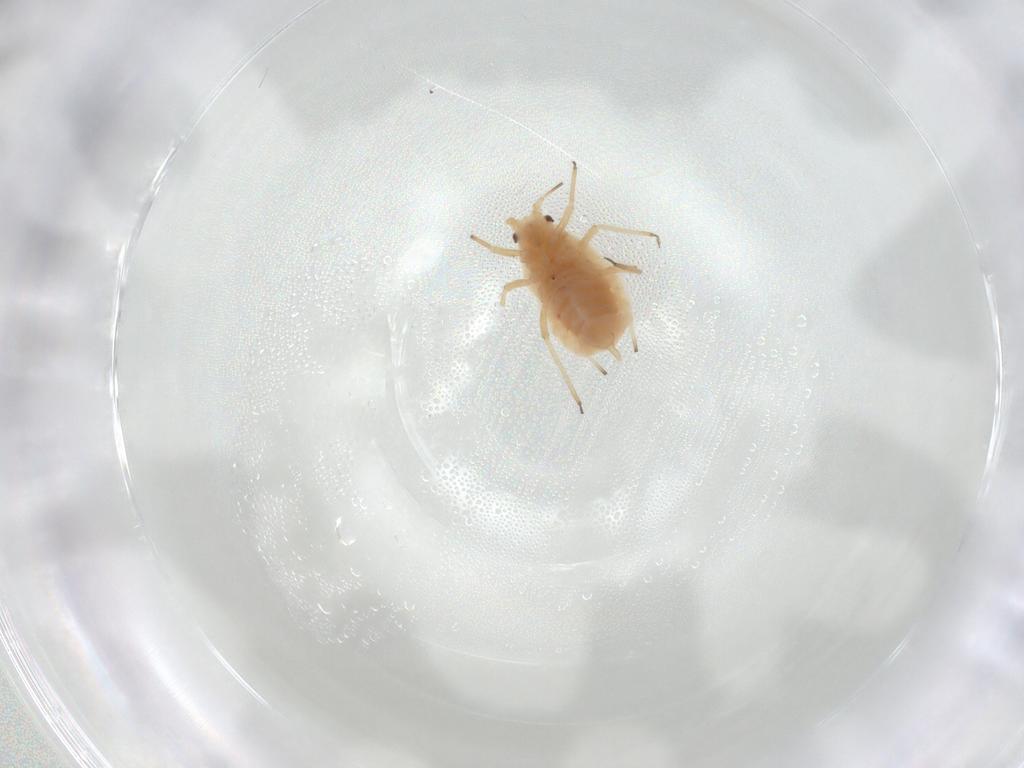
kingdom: Animalia
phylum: Arthropoda
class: Insecta
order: Hemiptera
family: Aphididae
